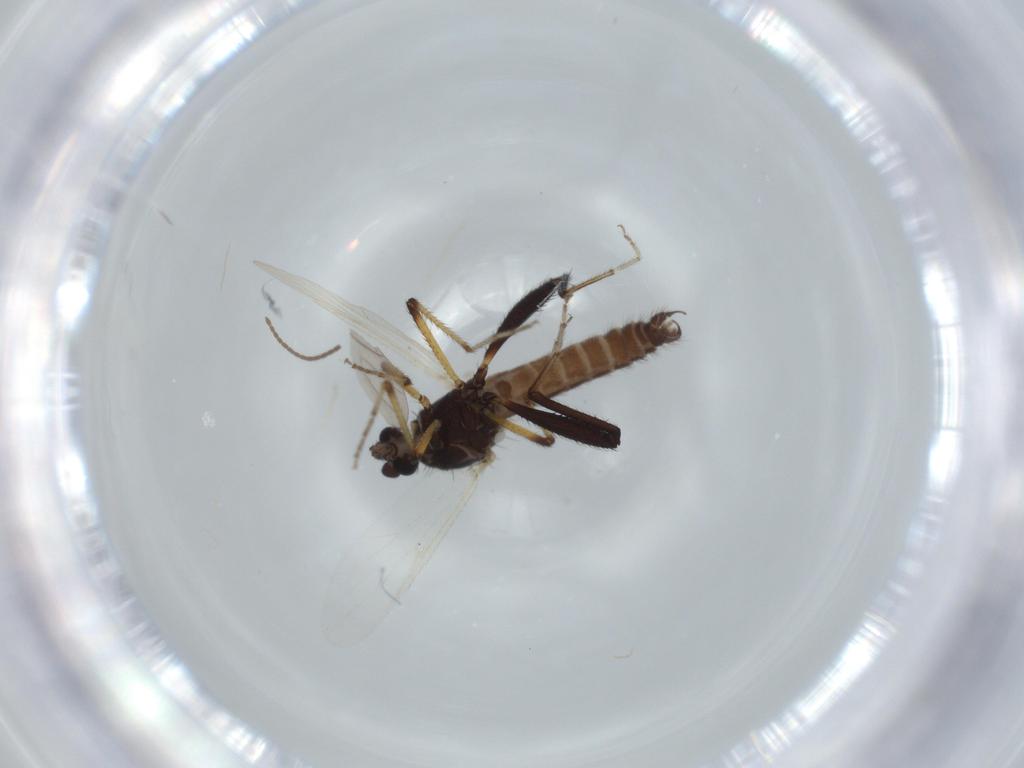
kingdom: Animalia
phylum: Arthropoda
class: Insecta
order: Diptera
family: Ceratopogonidae
